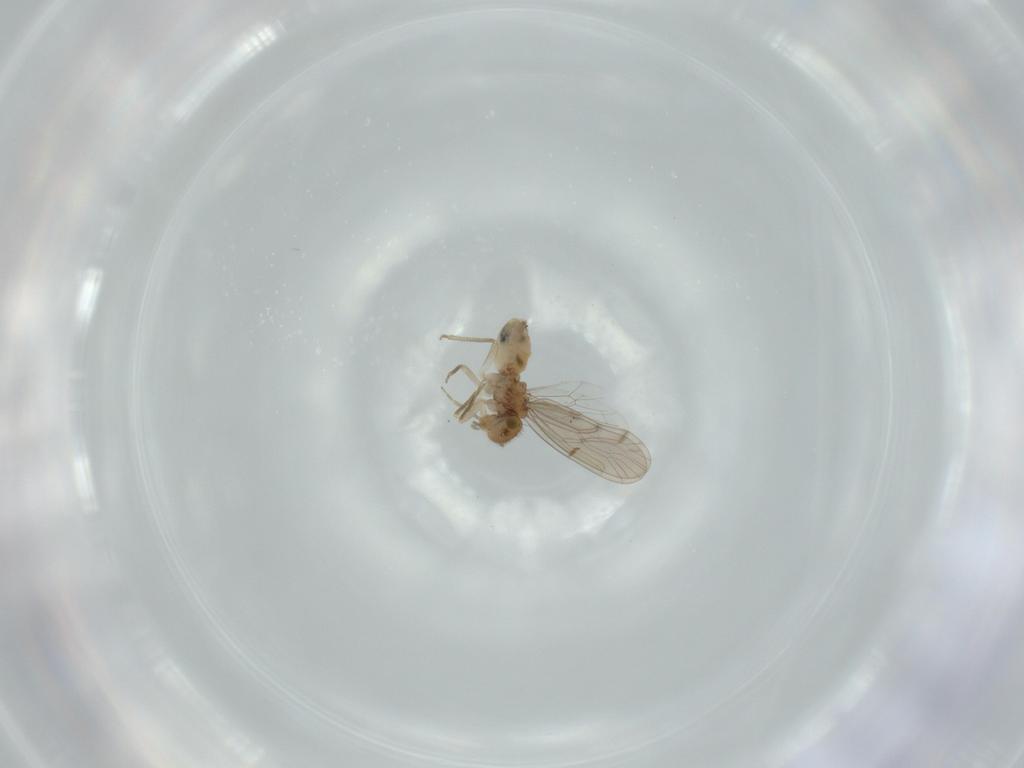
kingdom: Animalia
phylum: Arthropoda
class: Insecta
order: Psocodea
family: Ectopsocidae
